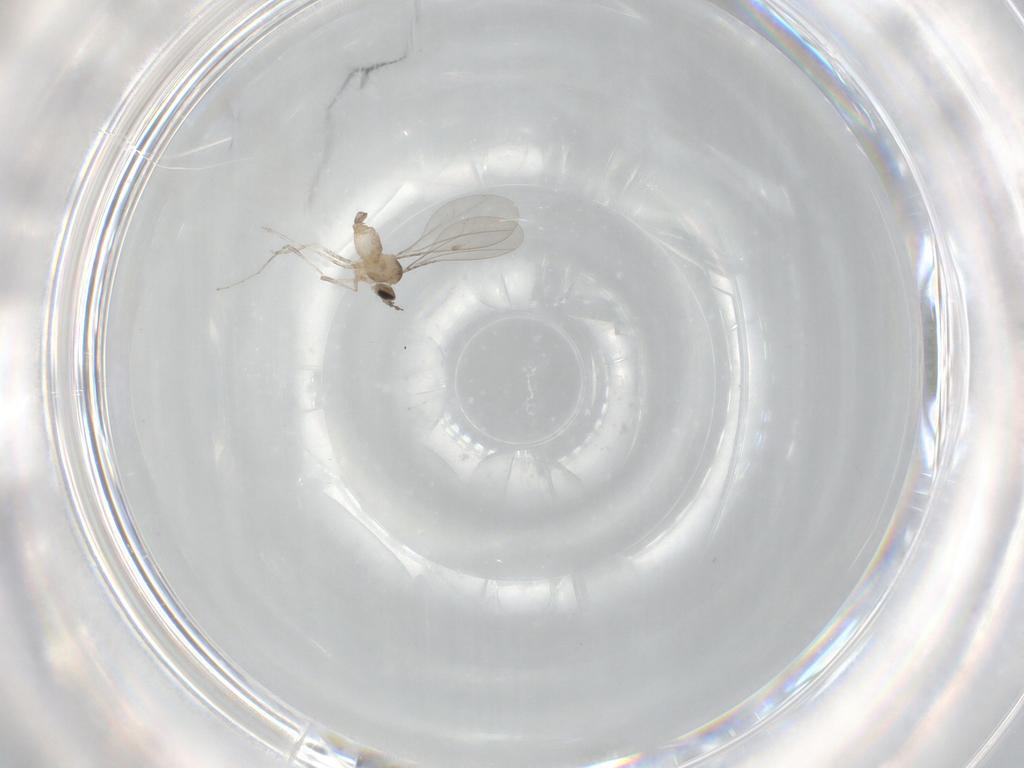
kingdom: Animalia
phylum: Arthropoda
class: Insecta
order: Diptera
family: Cecidomyiidae
